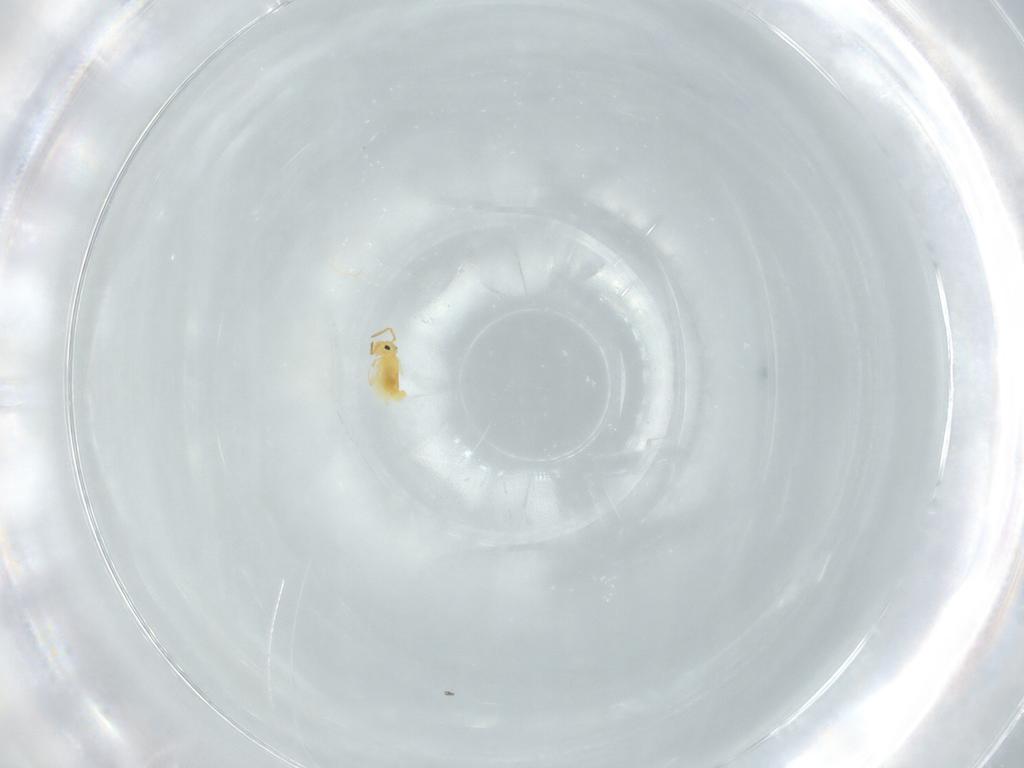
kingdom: Animalia
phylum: Arthropoda
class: Collembola
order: Symphypleona
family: Bourletiellidae
